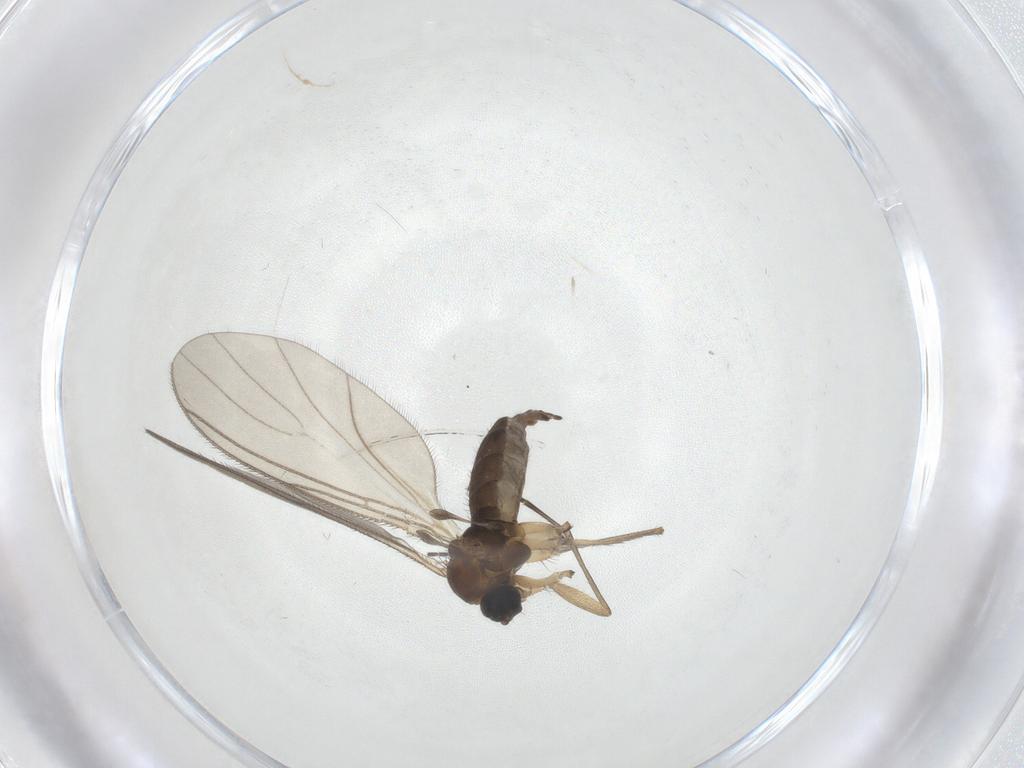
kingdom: Animalia
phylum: Arthropoda
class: Insecta
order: Diptera
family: Sciaridae
